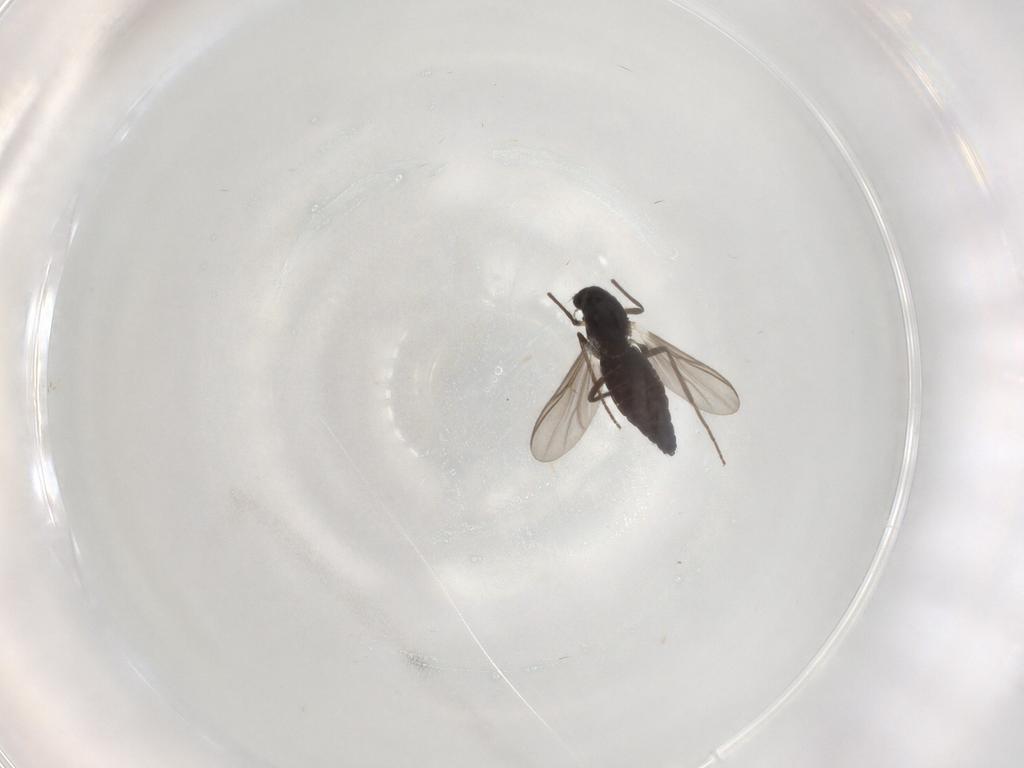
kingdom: Animalia
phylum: Arthropoda
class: Insecta
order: Diptera
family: Chironomidae
